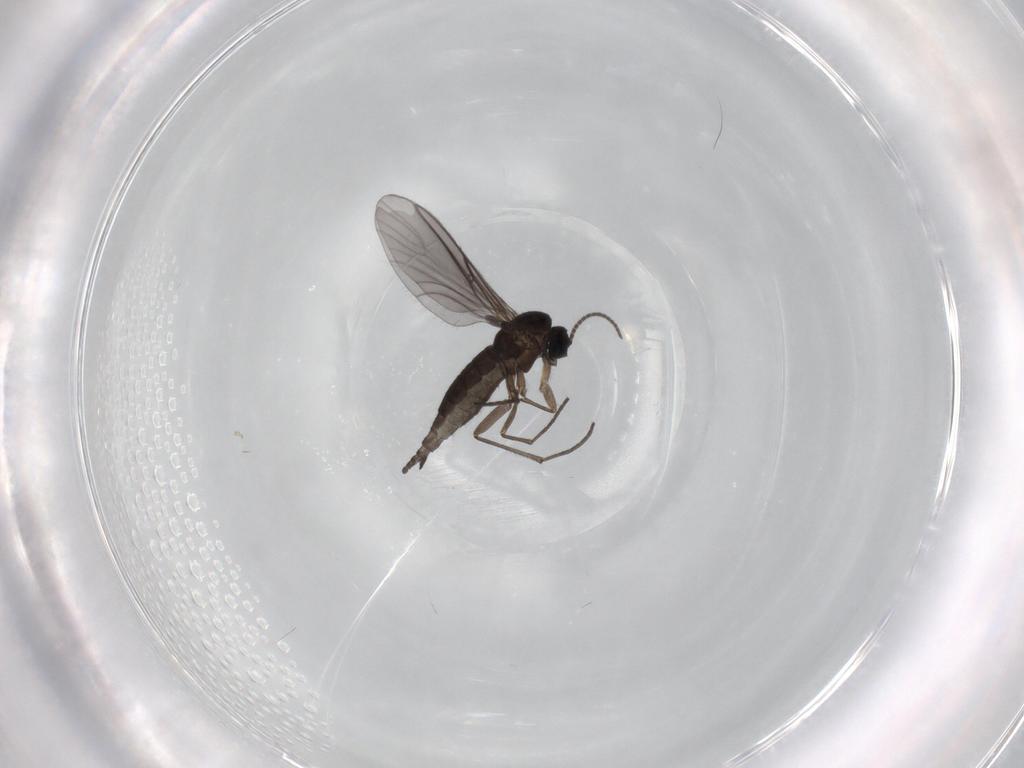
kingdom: Animalia
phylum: Arthropoda
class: Insecta
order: Diptera
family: Sciaridae
